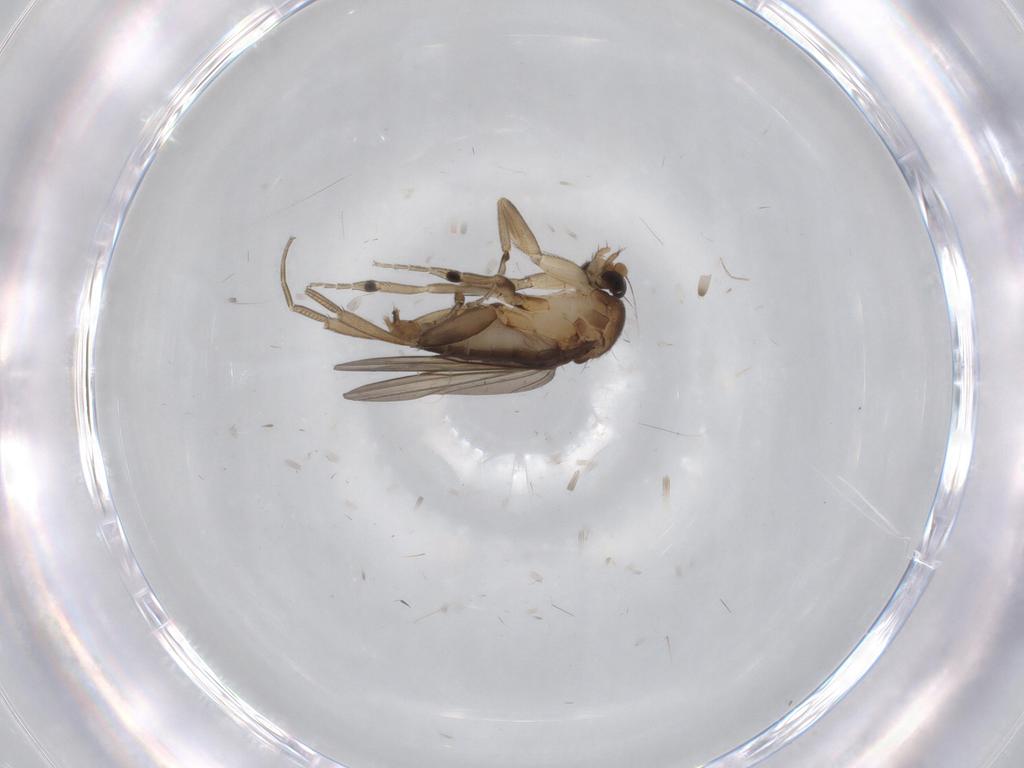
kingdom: Animalia
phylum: Arthropoda
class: Insecta
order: Diptera
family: Phoridae
